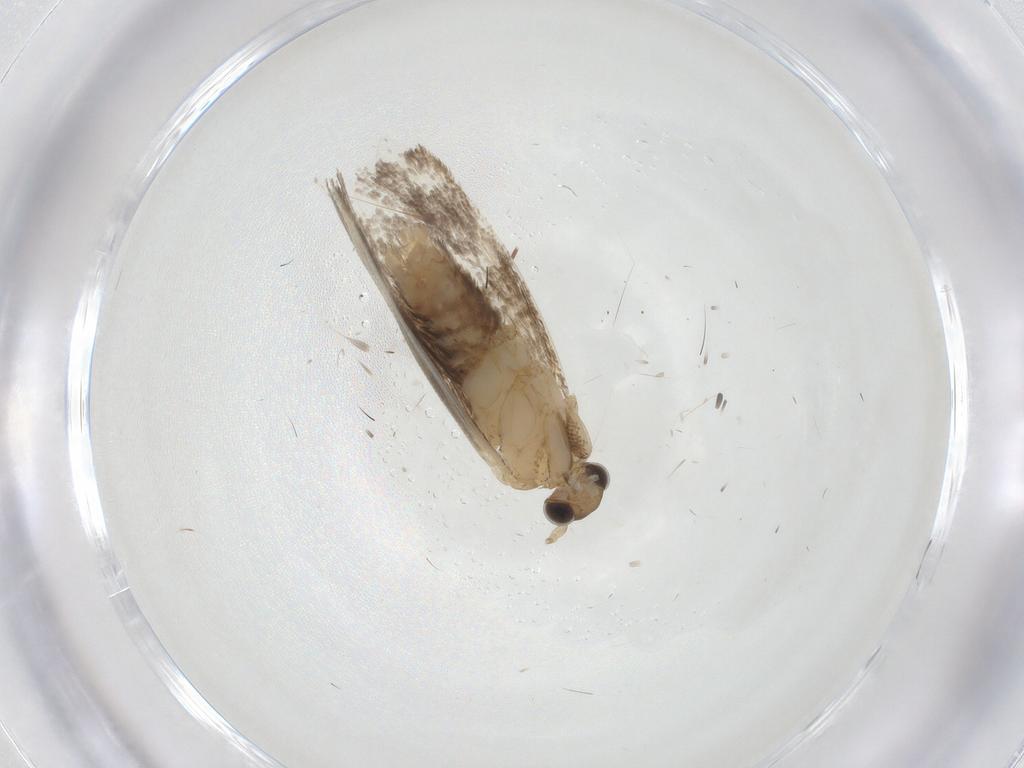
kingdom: Animalia
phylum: Arthropoda
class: Insecta
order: Lepidoptera
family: Dryadaulidae
